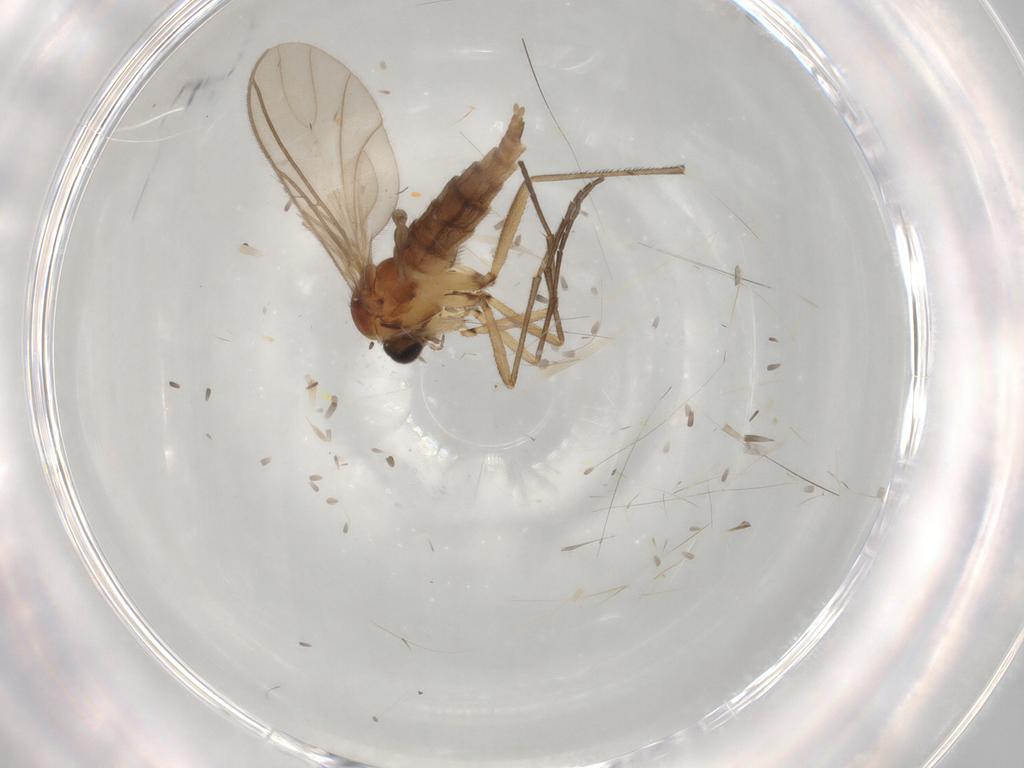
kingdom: Animalia
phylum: Arthropoda
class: Insecta
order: Diptera
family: Sciaridae
